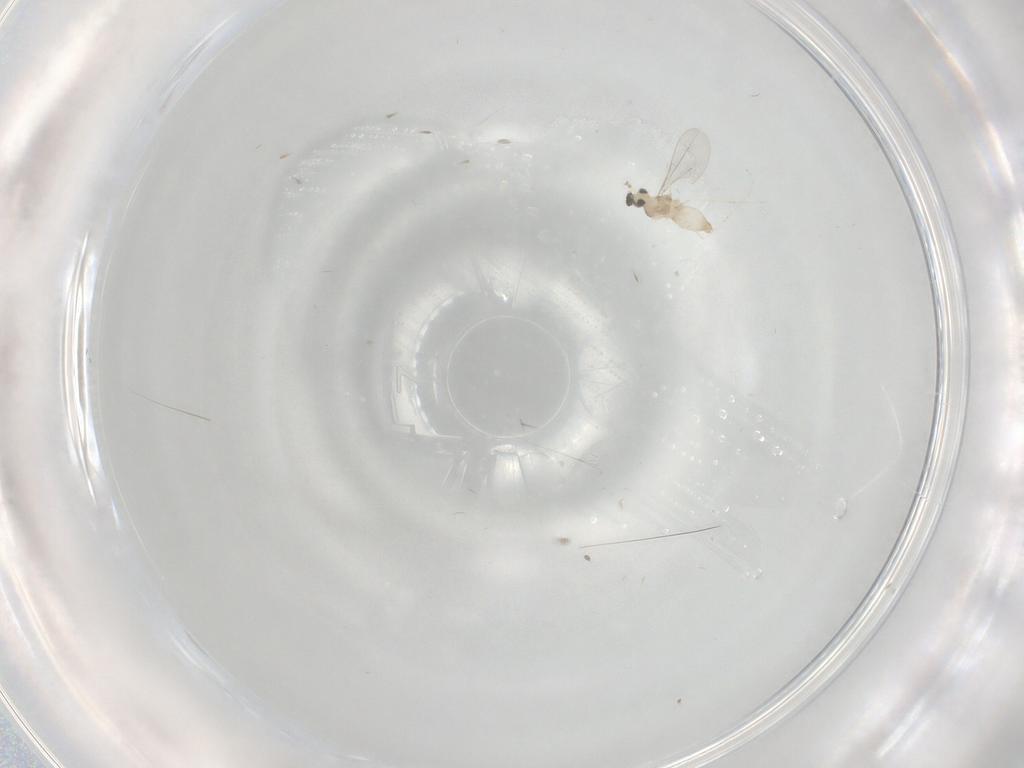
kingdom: Animalia
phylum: Arthropoda
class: Insecta
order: Diptera
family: Cecidomyiidae
